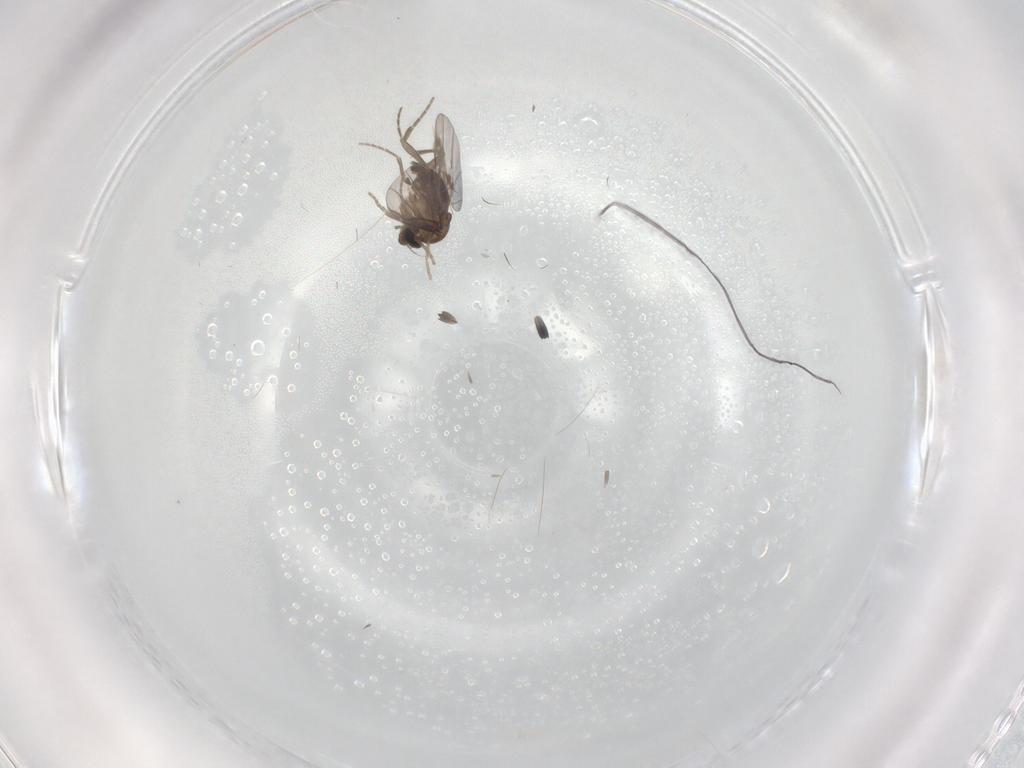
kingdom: Animalia
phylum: Arthropoda
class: Insecta
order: Diptera
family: Chironomidae
